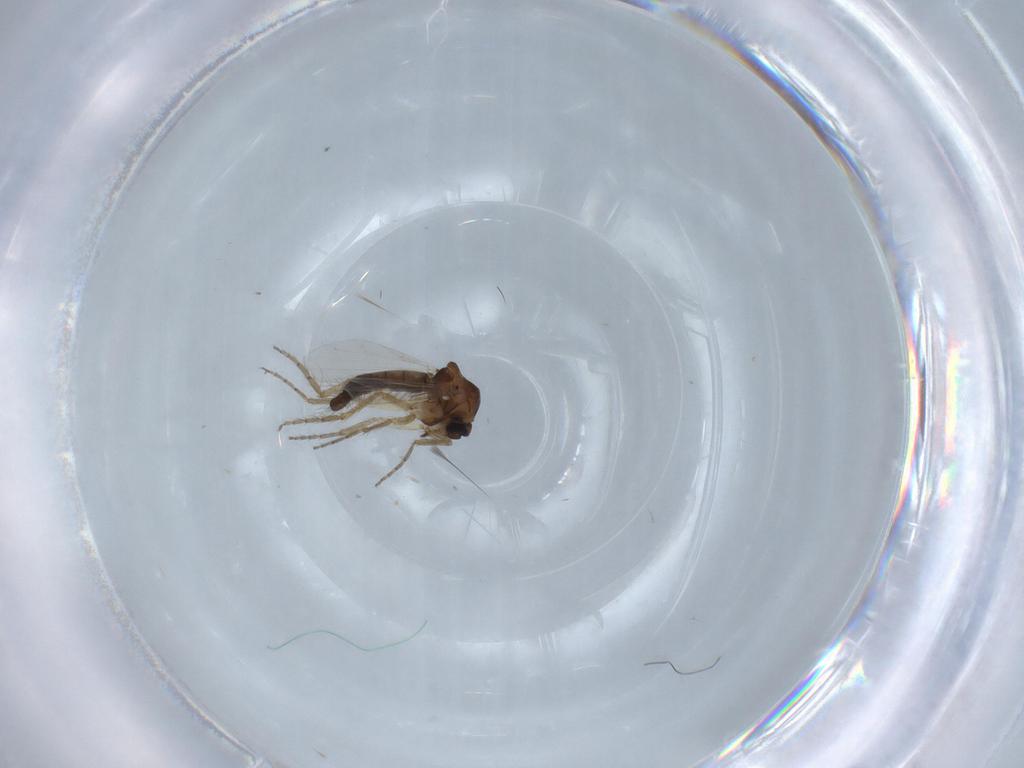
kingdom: Animalia
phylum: Arthropoda
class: Insecta
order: Diptera
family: Ceratopogonidae
